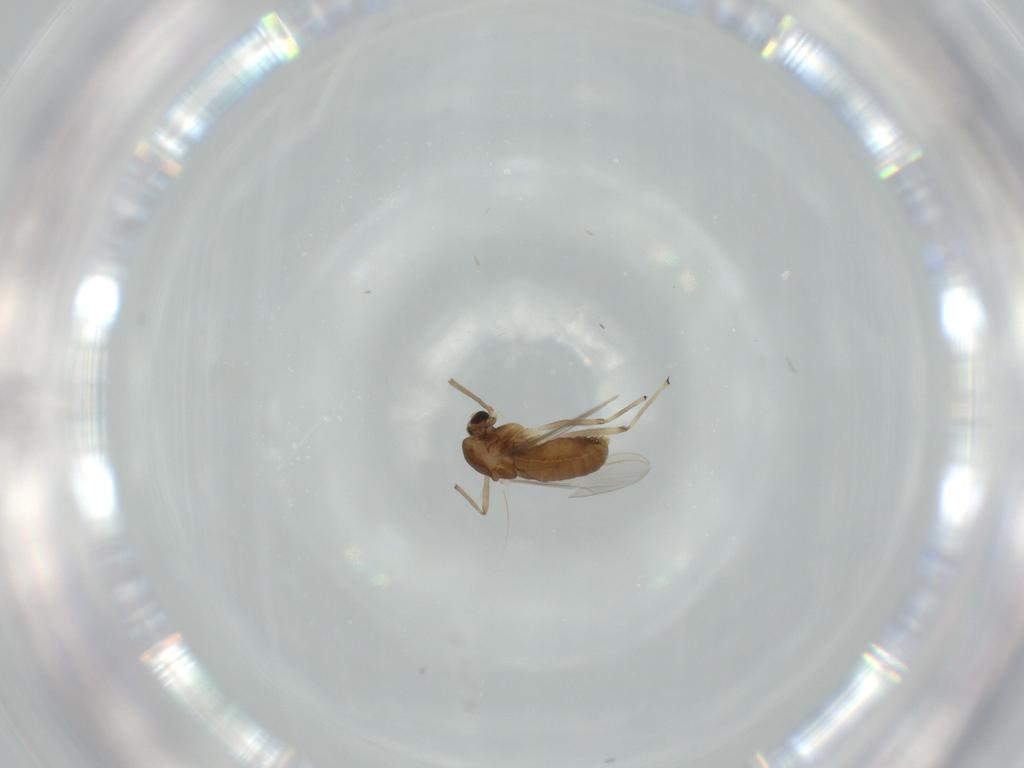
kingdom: Animalia
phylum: Arthropoda
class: Insecta
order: Diptera
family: Chironomidae
